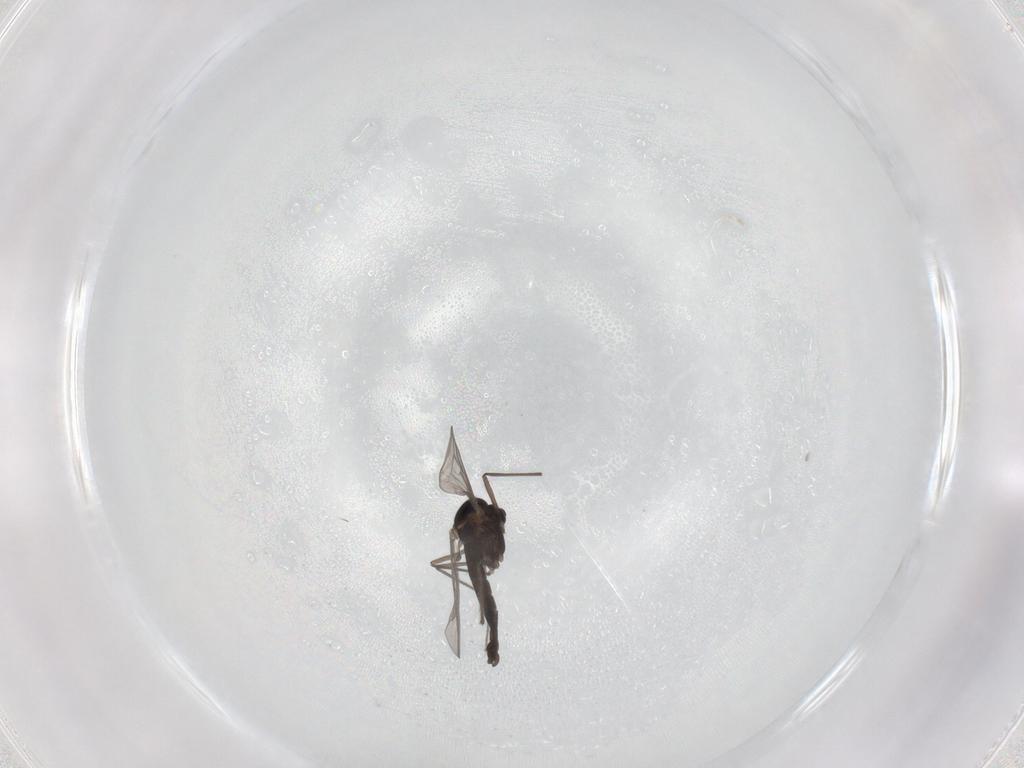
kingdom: Animalia
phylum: Arthropoda
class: Insecta
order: Diptera
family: Chironomidae
